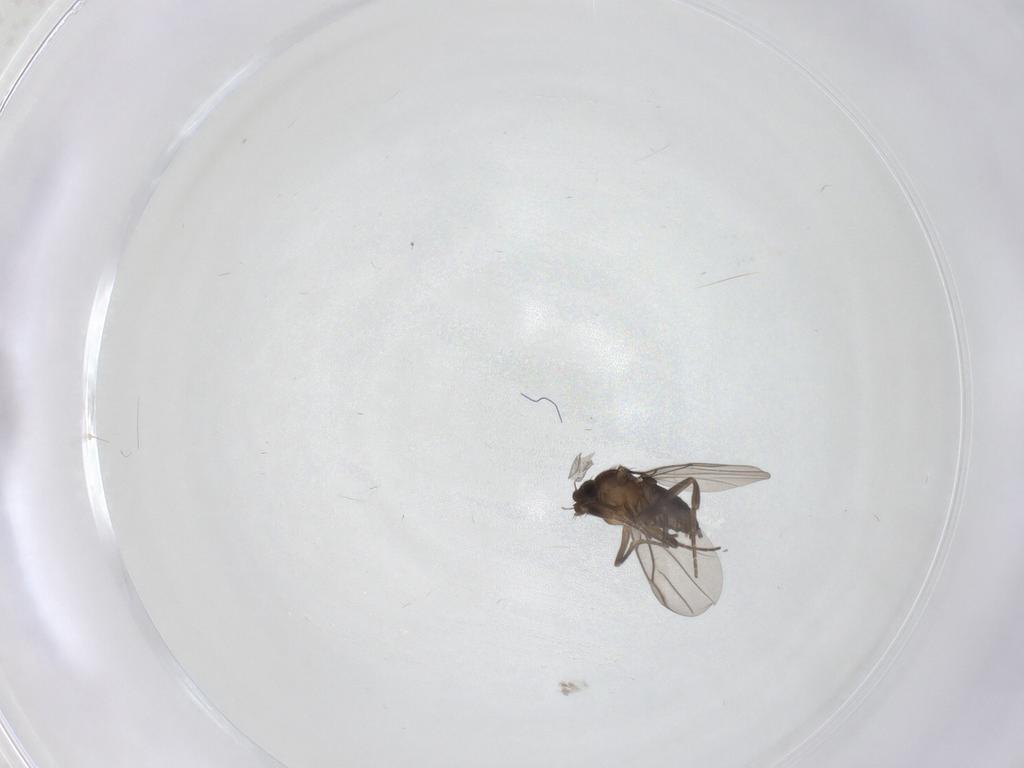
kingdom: Animalia
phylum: Arthropoda
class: Insecta
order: Diptera
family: Phoridae
